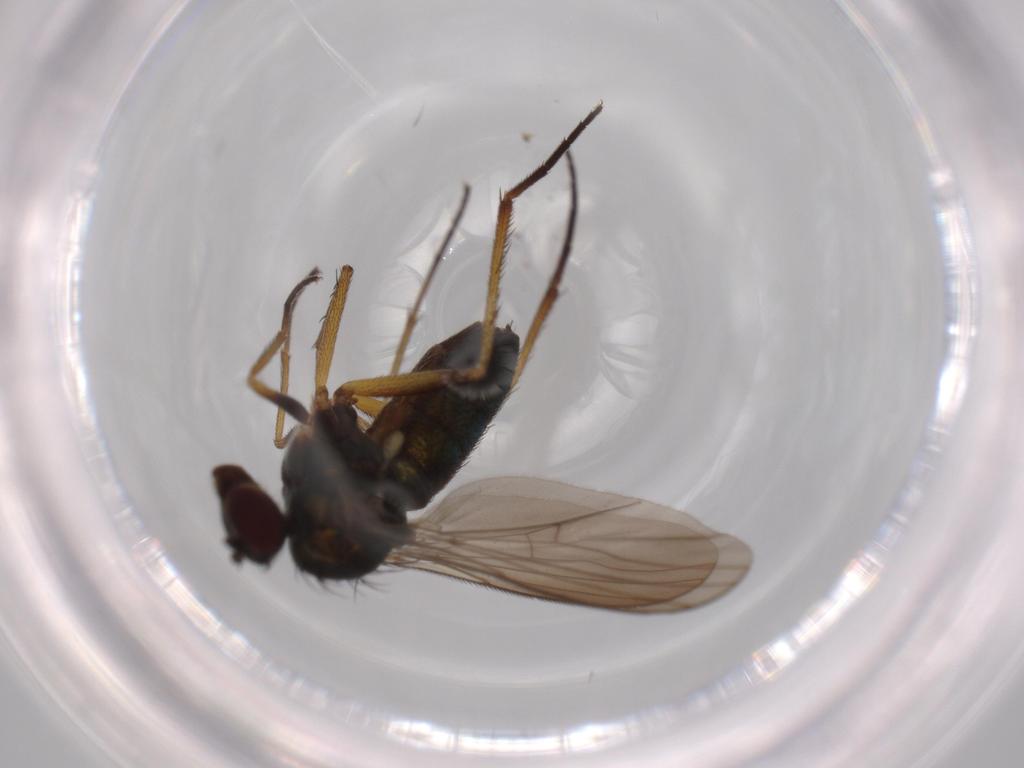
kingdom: Animalia
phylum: Arthropoda
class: Insecta
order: Diptera
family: Dolichopodidae
